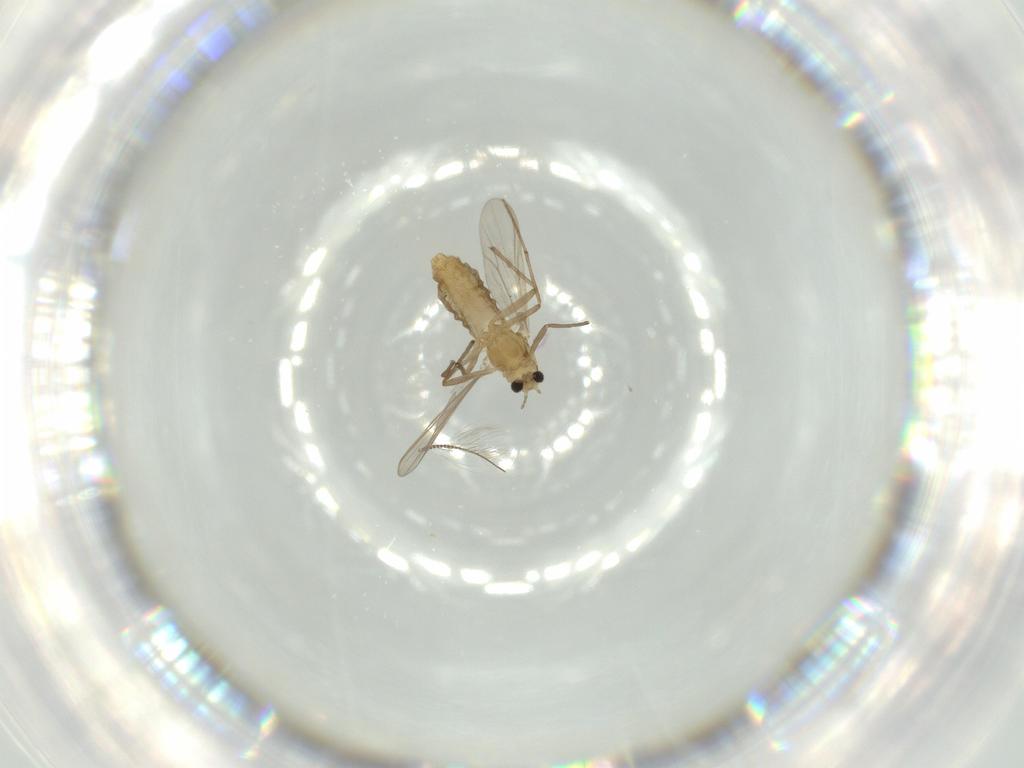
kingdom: Animalia
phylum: Arthropoda
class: Insecta
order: Diptera
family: Chironomidae
